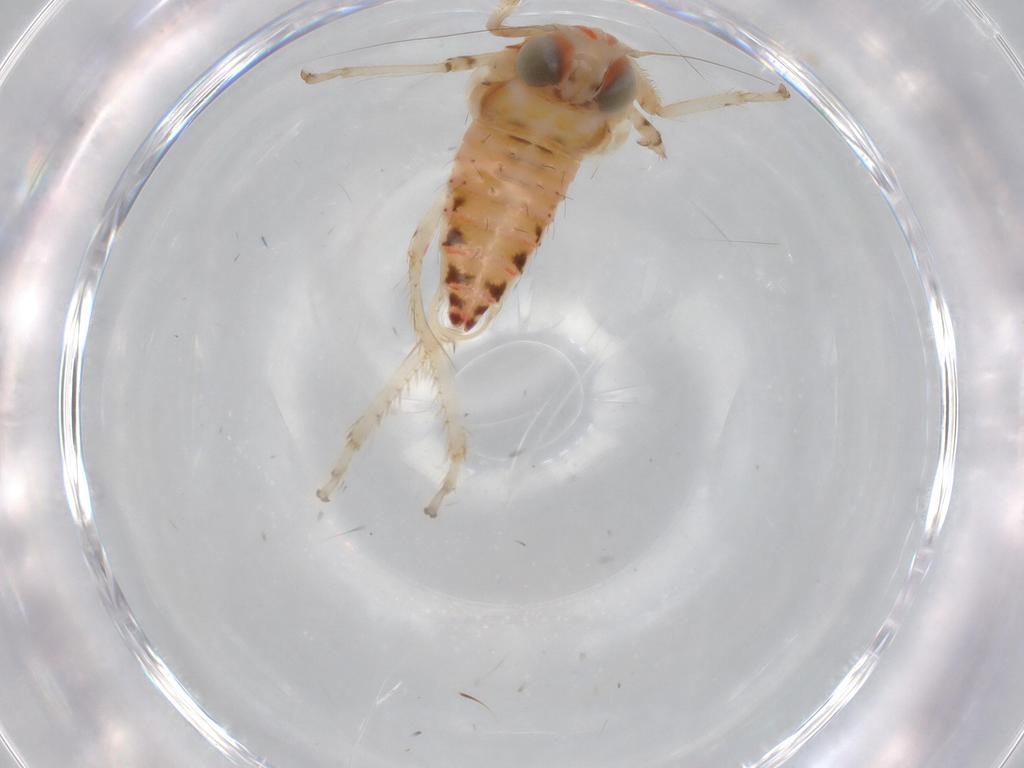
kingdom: Animalia
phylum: Arthropoda
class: Insecta
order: Hemiptera
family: Cicadellidae
